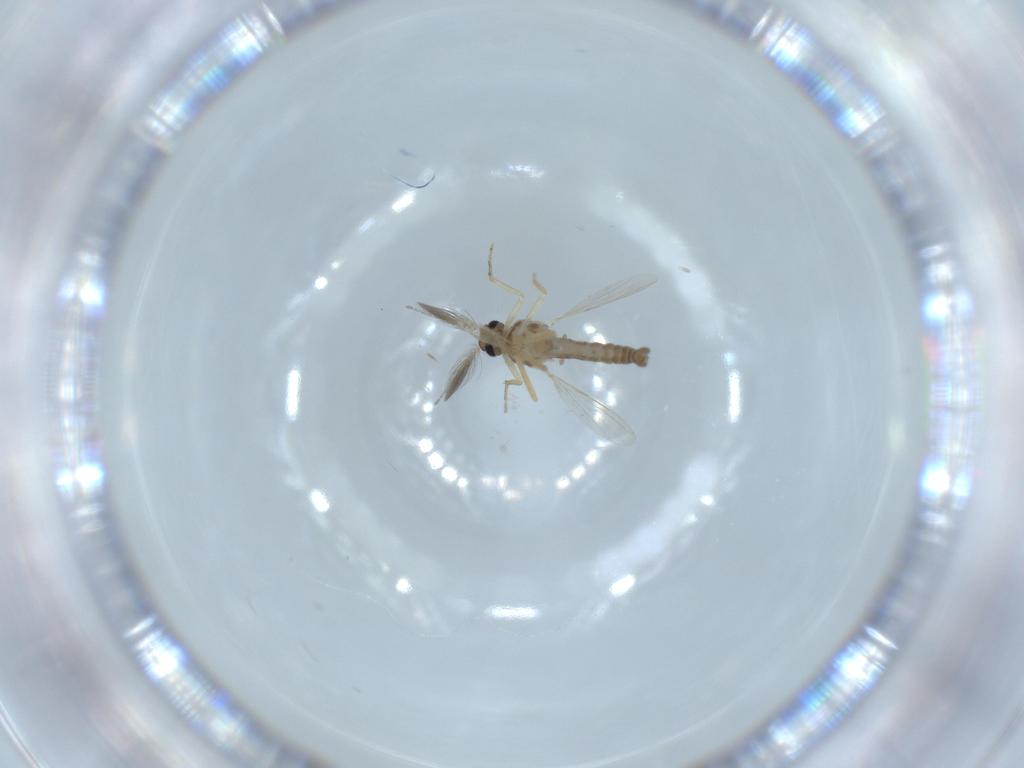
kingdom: Animalia
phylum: Arthropoda
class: Insecta
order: Diptera
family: Ceratopogonidae
